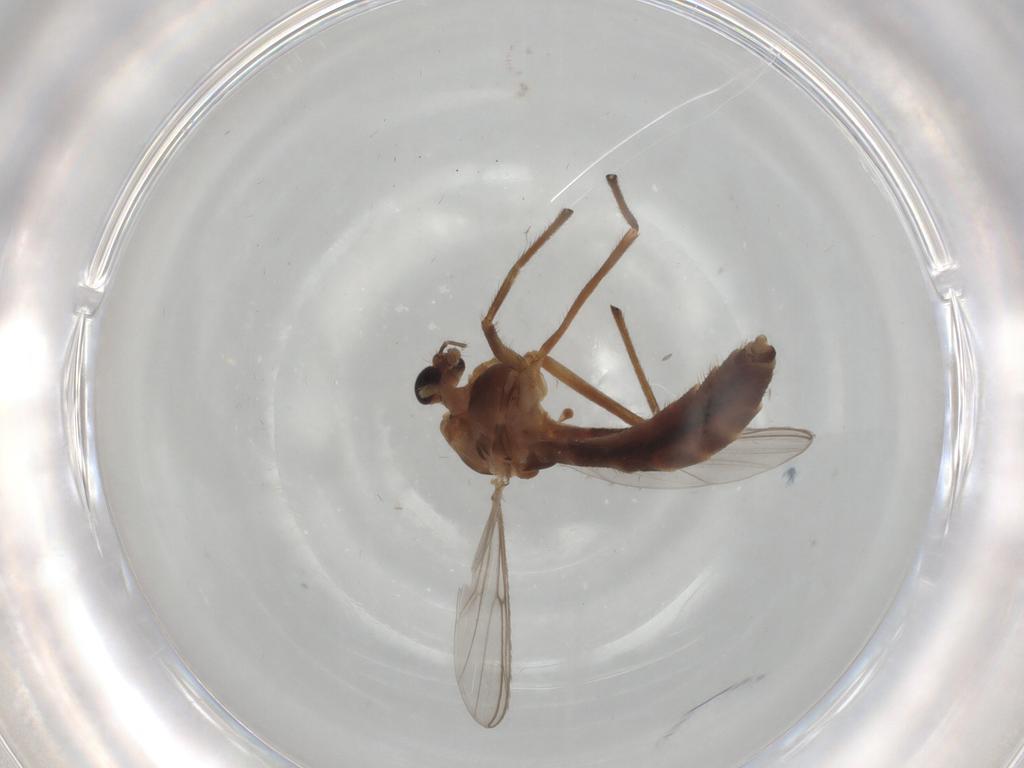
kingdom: Animalia
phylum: Arthropoda
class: Insecta
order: Diptera
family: Chironomidae
